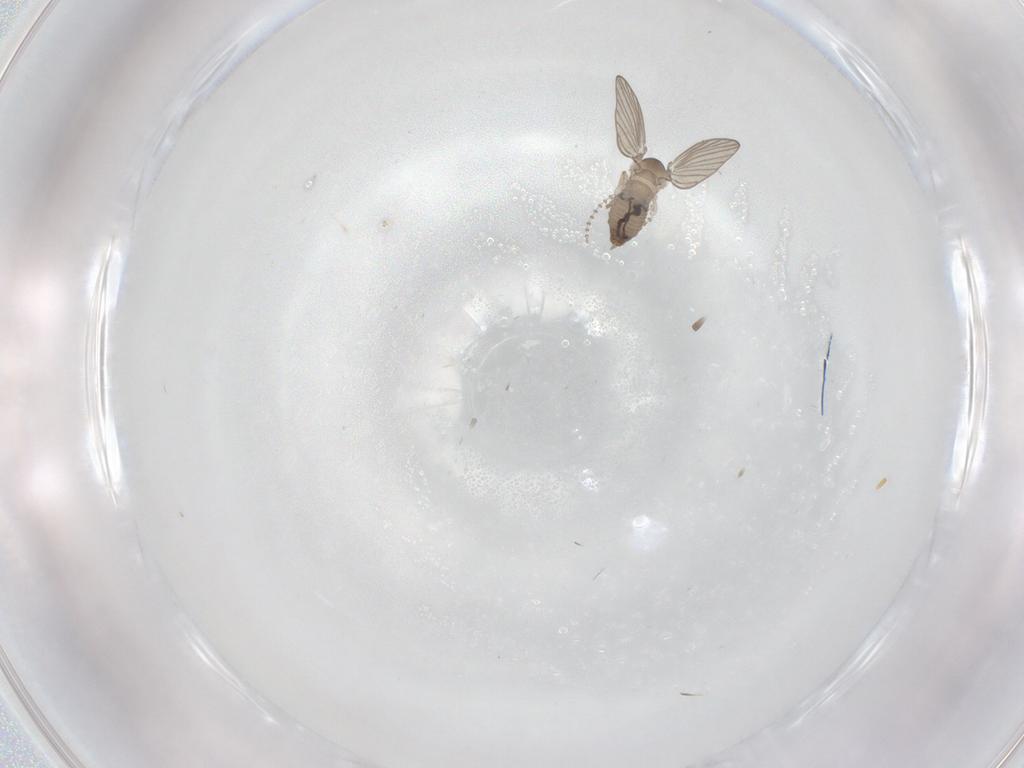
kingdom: Animalia
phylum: Arthropoda
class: Insecta
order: Diptera
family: Psychodidae
